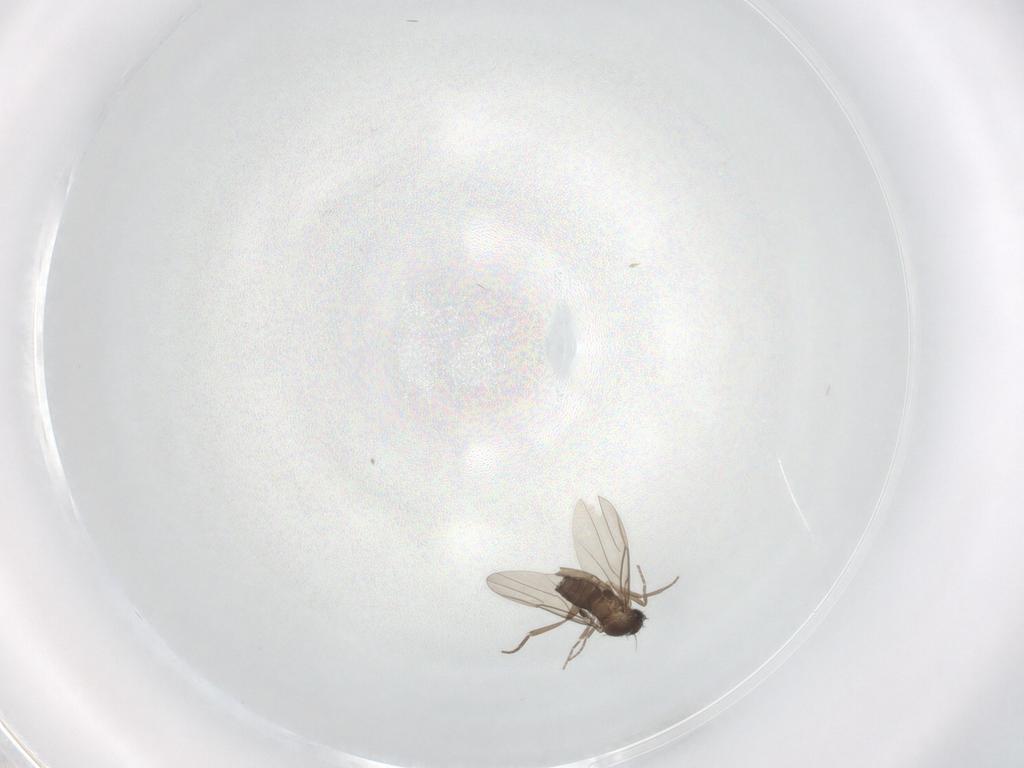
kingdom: Animalia
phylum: Arthropoda
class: Insecta
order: Diptera
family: Phoridae
